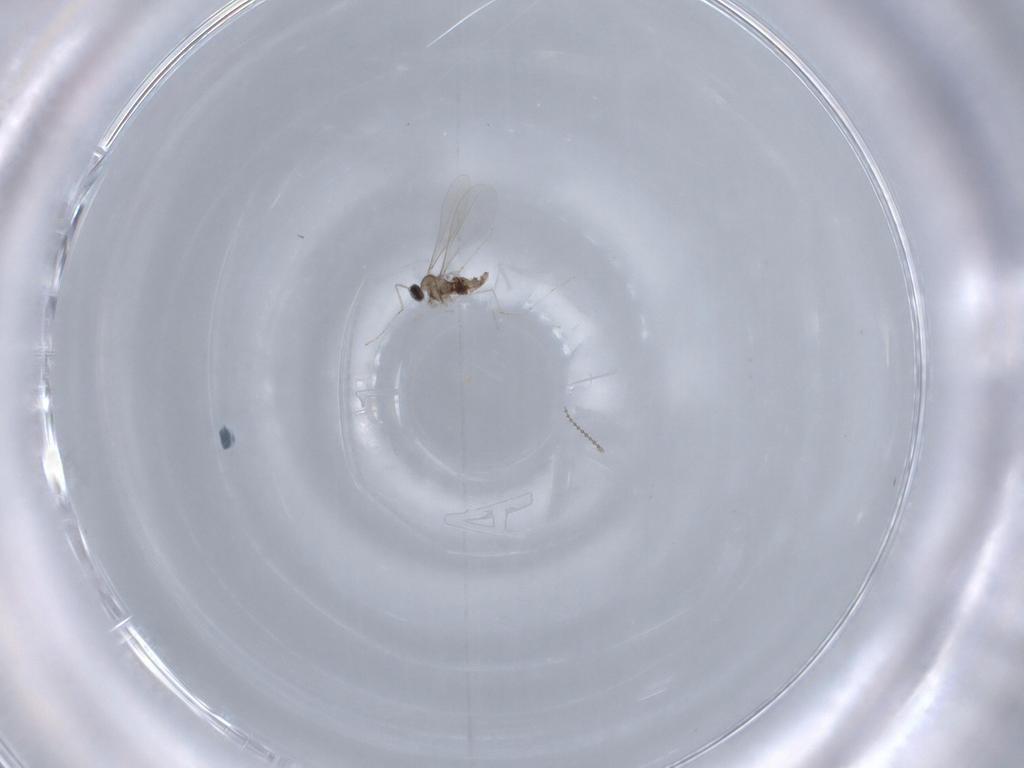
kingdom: Animalia
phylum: Arthropoda
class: Insecta
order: Diptera
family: Cecidomyiidae
